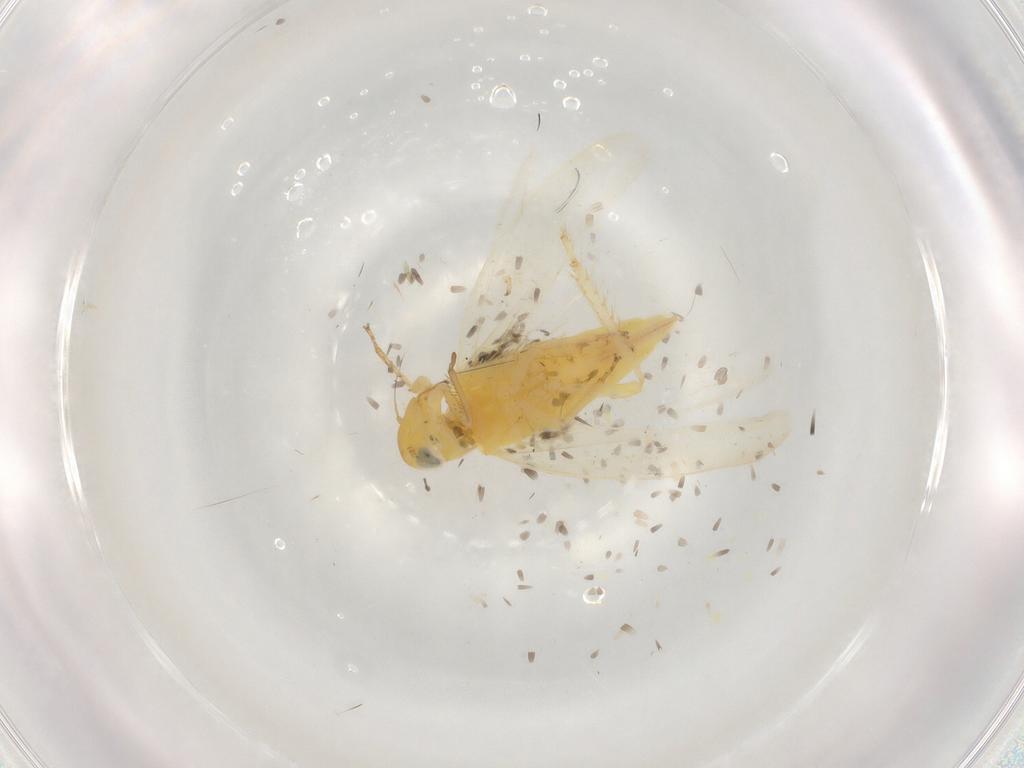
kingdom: Animalia
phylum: Arthropoda
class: Insecta
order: Hemiptera
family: Cicadellidae
